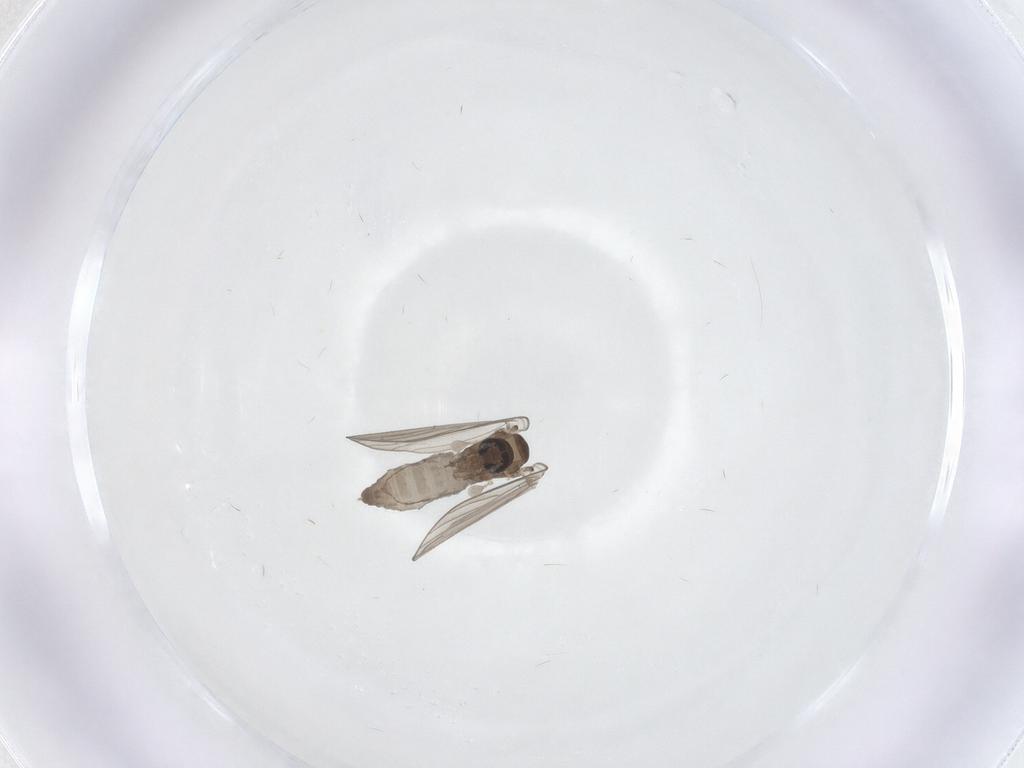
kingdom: Animalia
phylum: Arthropoda
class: Insecta
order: Diptera
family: Psychodidae
